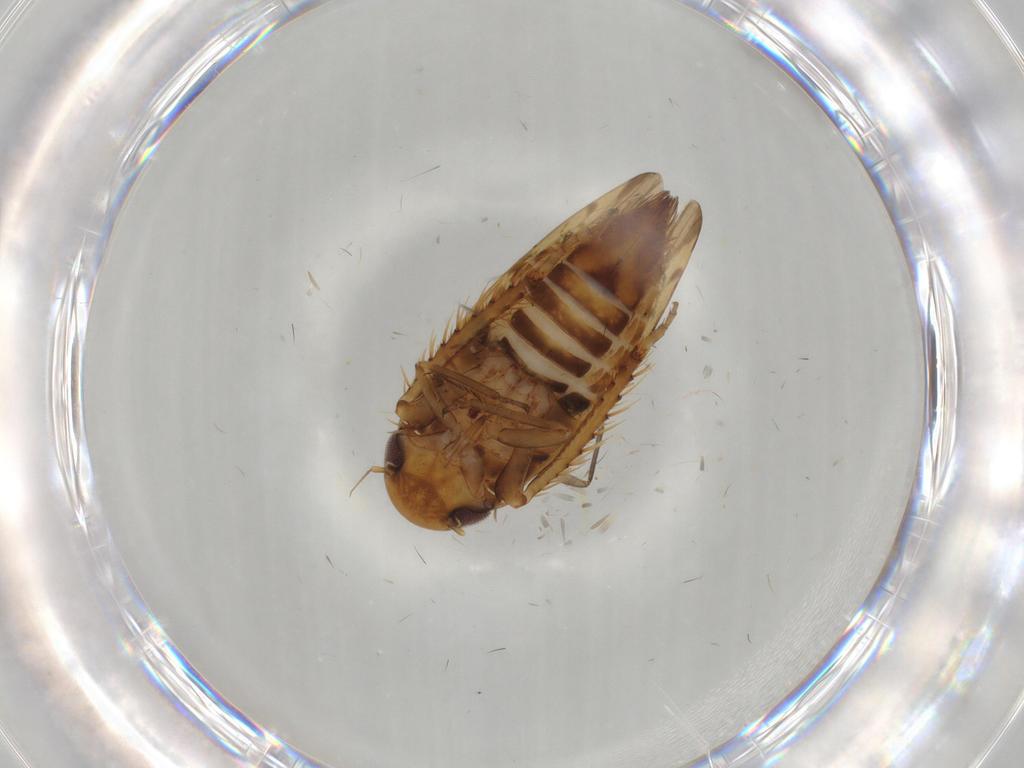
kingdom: Animalia
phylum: Arthropoda
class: Insecta
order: Hemiptera
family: Cicadellidae
